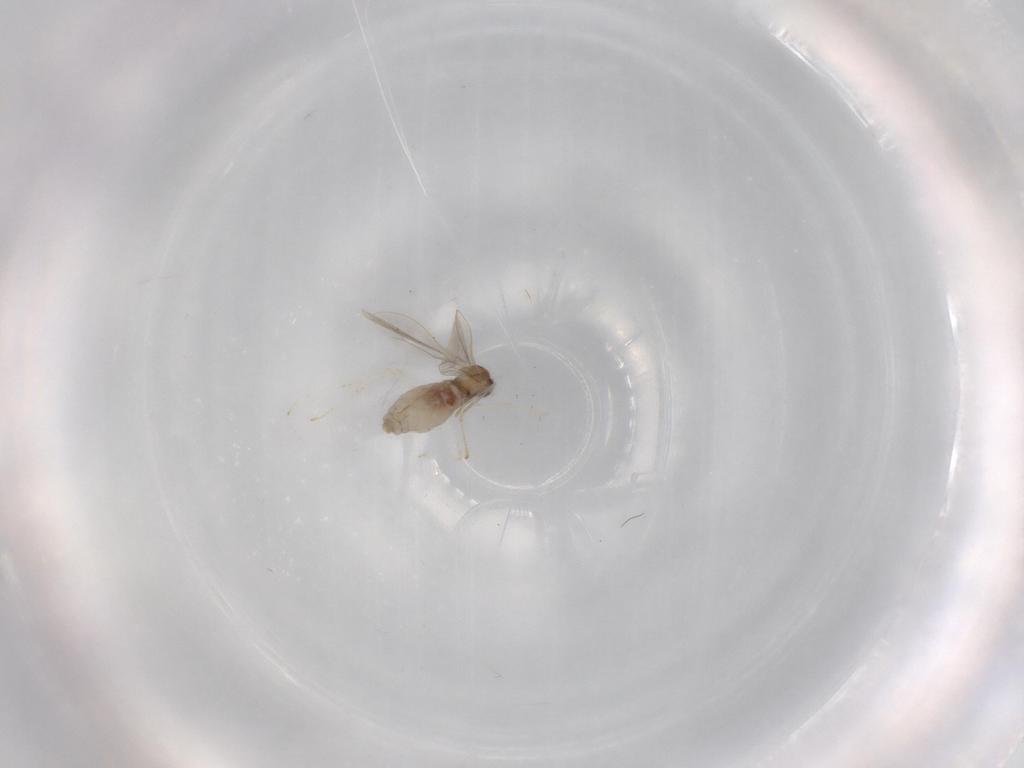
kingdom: Animalia
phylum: Arthropoda
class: Insecta
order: Diptera
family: Cecidomyiidae
